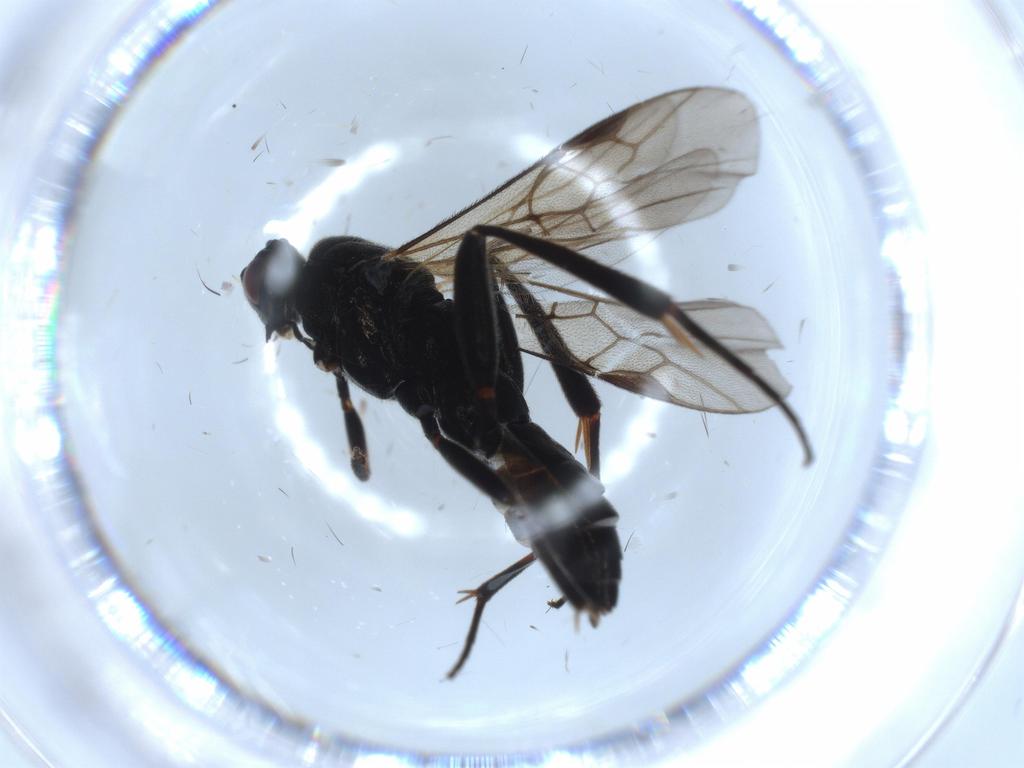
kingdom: Animalia
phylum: Arthropoda
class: Insecta
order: Hymenoptera
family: Braconidae
